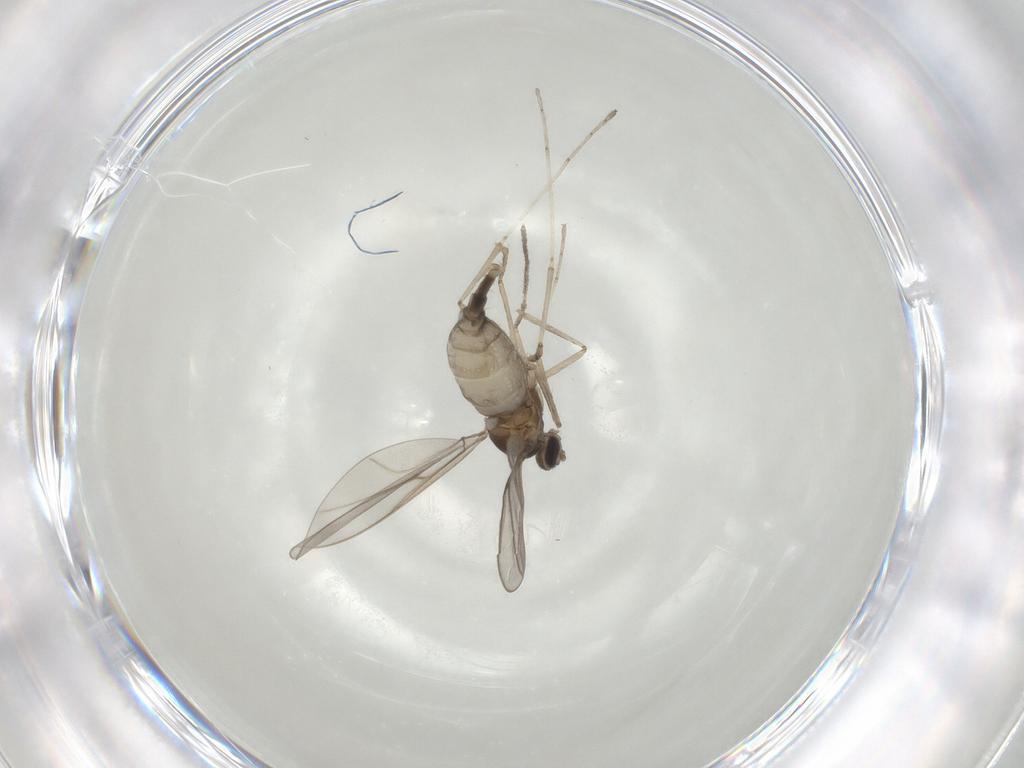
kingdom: Animalia
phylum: Arthropoda
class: Insecta
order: Diptera
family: Cecidomyiidae
